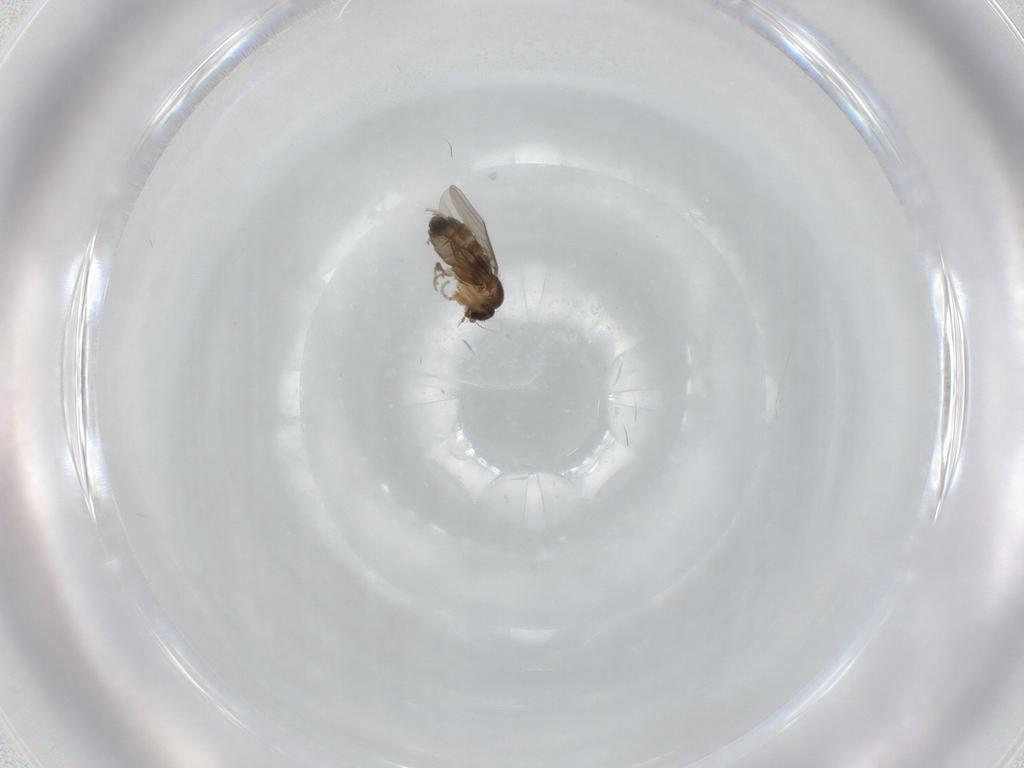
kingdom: Animalia
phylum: Arthropoda
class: Insecta
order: Diptera
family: Phoridae
